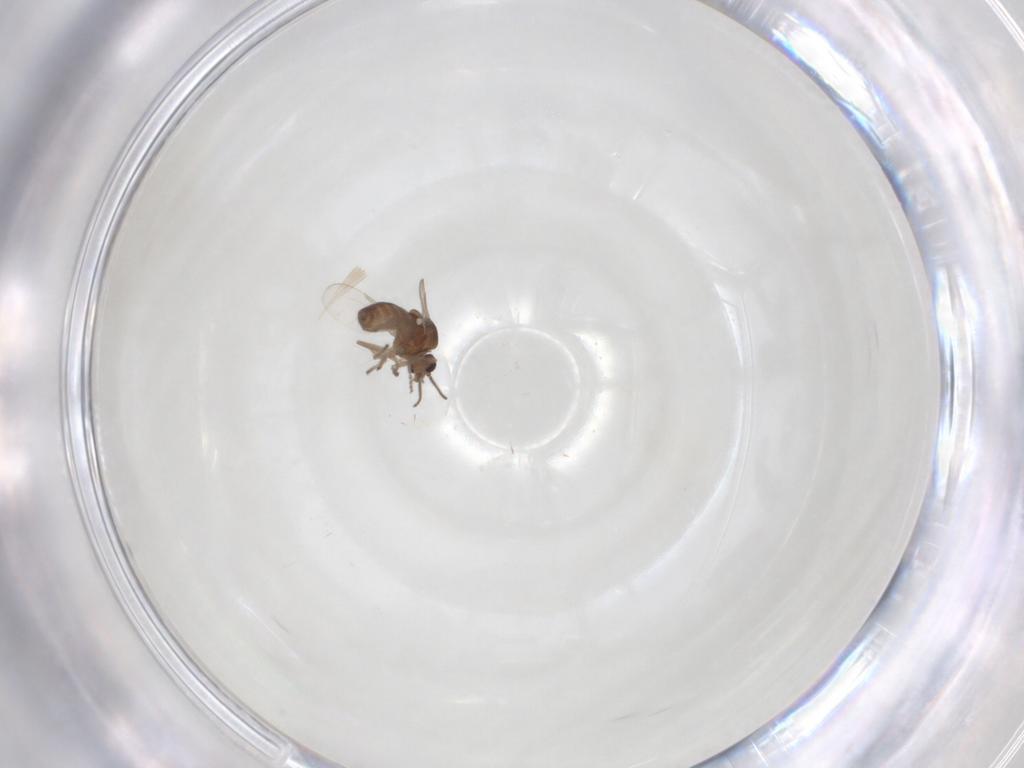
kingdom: Animalia
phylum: Arthropoda
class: Insecta
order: Diptera
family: Ceratopogonidae
